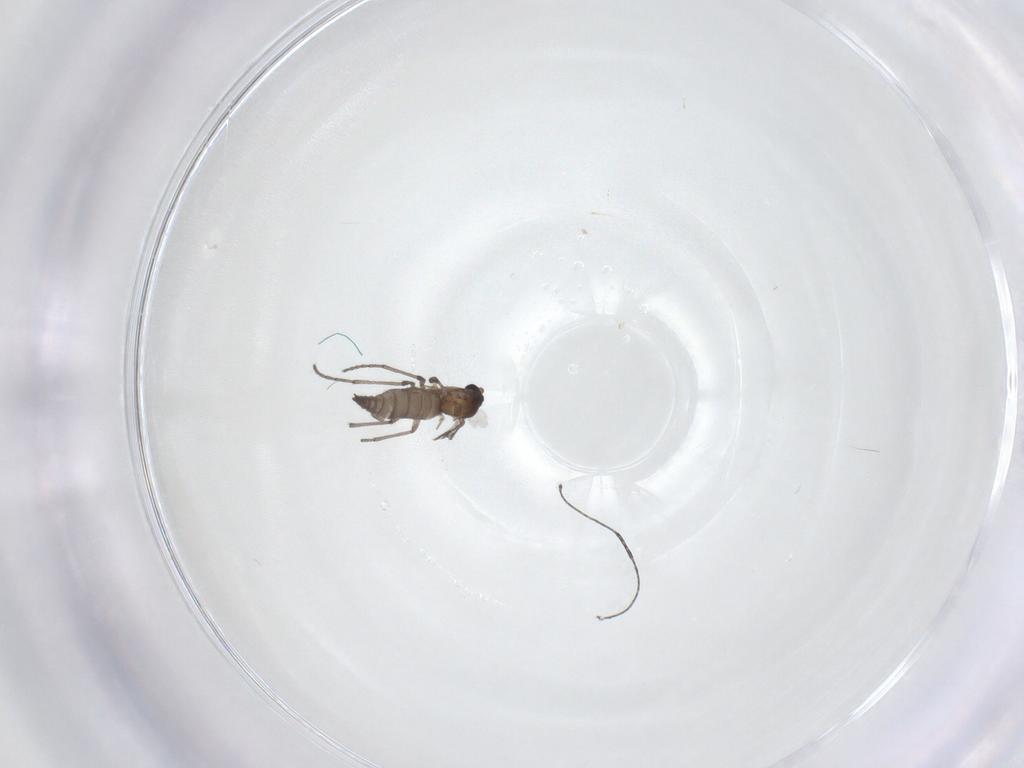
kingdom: Animalia
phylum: Arthropoda
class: Insecta
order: Diptera
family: Sciaridae
